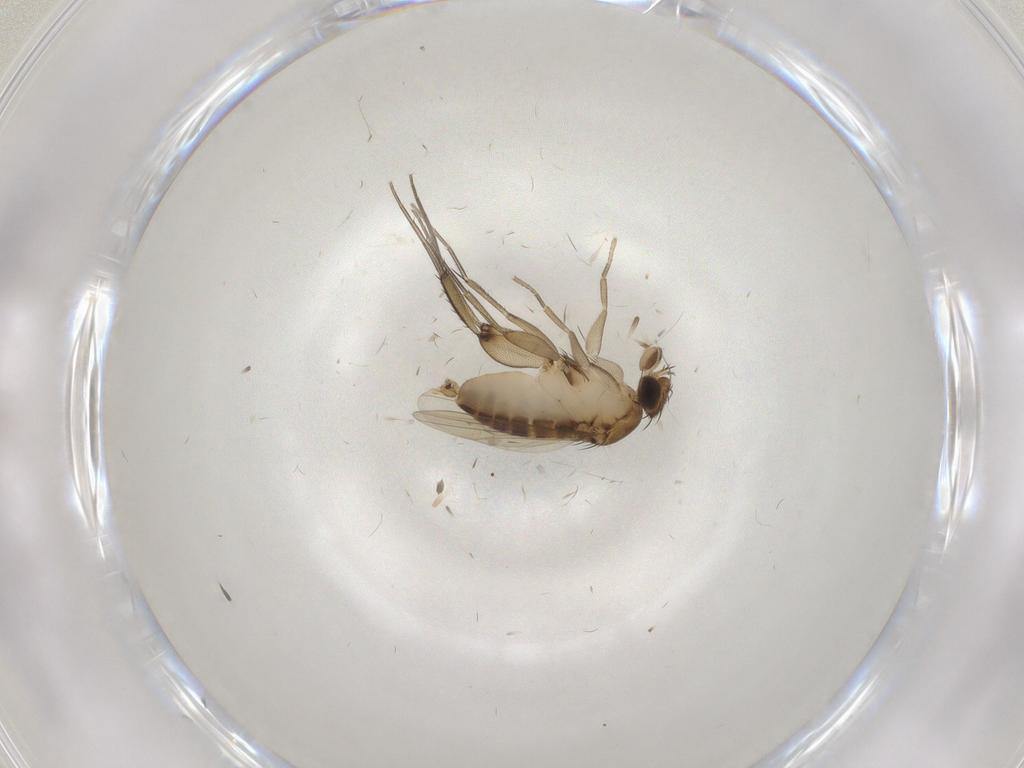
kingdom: Animalia
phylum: Arthropoda
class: Insecta
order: Diptera
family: Phoridae
